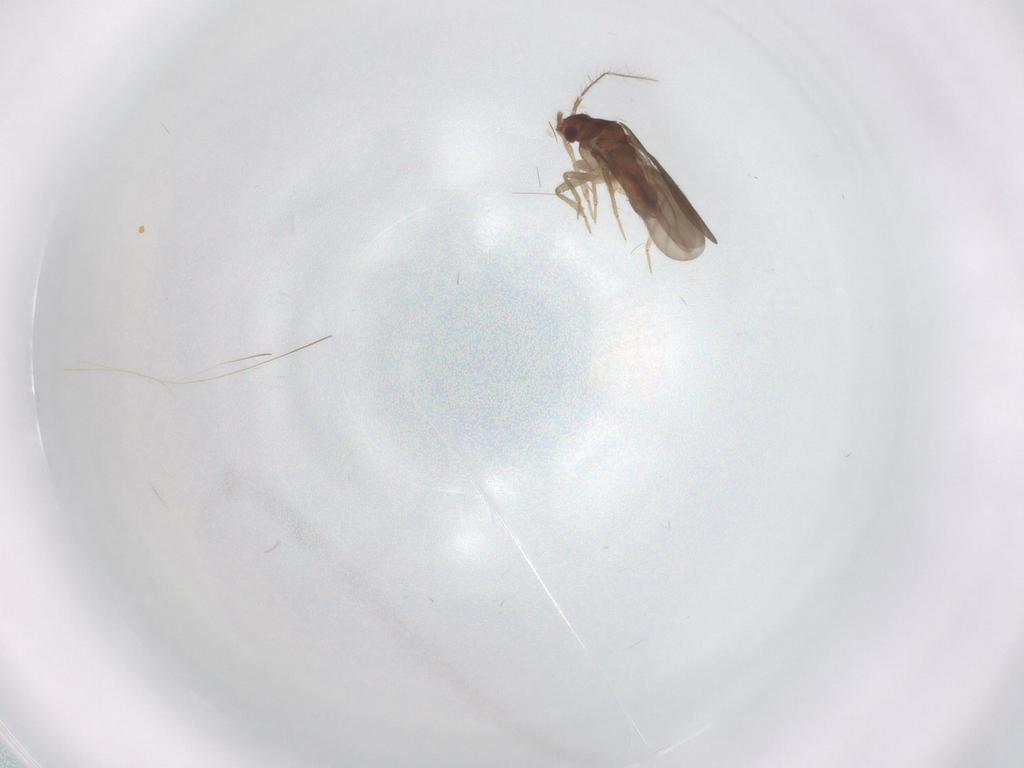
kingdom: Animalia
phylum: Arthropoda
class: Insecta
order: Hemiptera
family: Ceratocombidae
